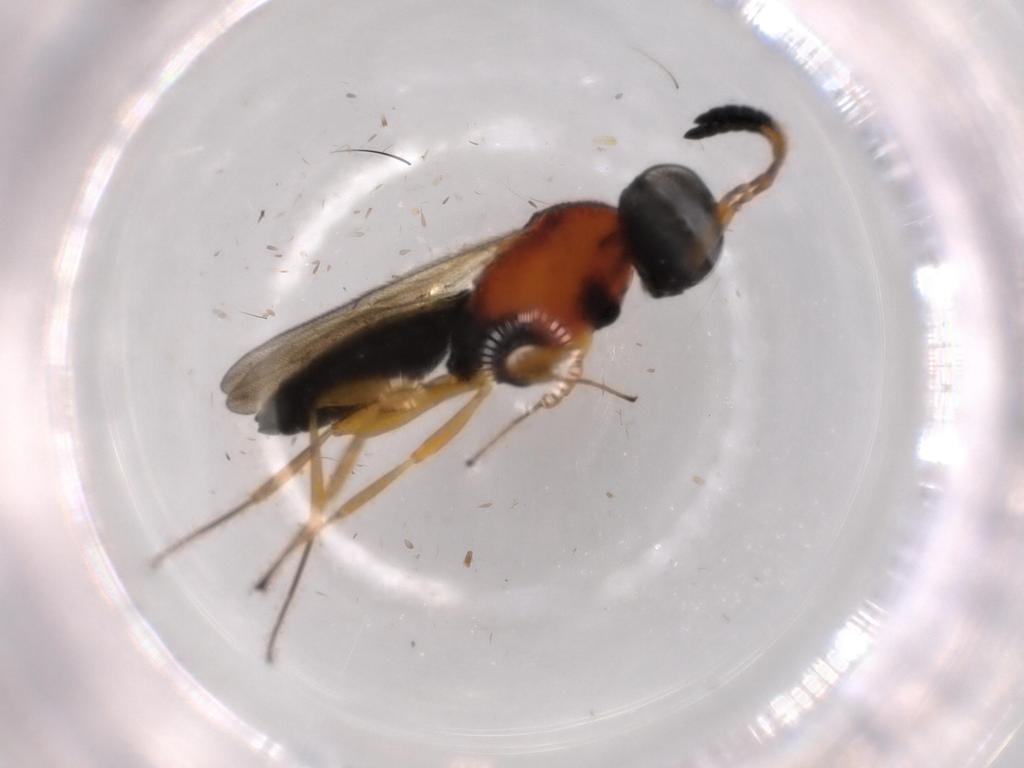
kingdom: Animalia
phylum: Arthropoda
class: Insecta
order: Hymenoptera
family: Scelionidae
